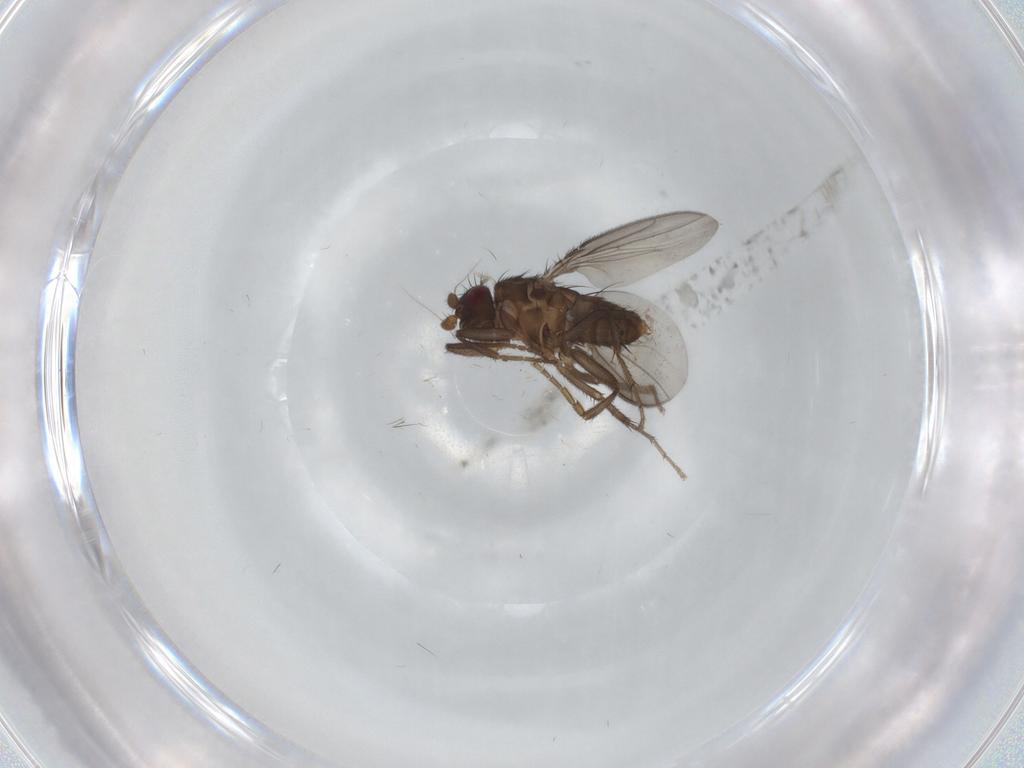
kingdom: Animalia
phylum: Arthropoda
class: Insecta
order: Diptera
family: Sphaeroceridae
